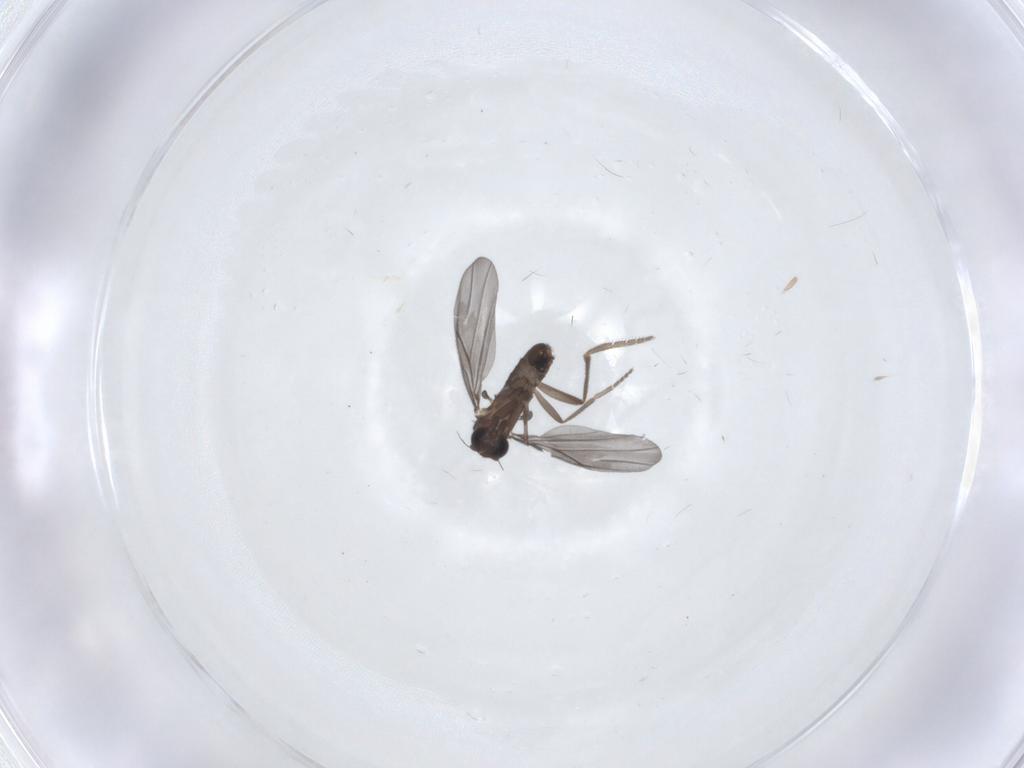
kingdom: Animalia
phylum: Arthropoda
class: Insecta
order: Diptera
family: Phoridae
